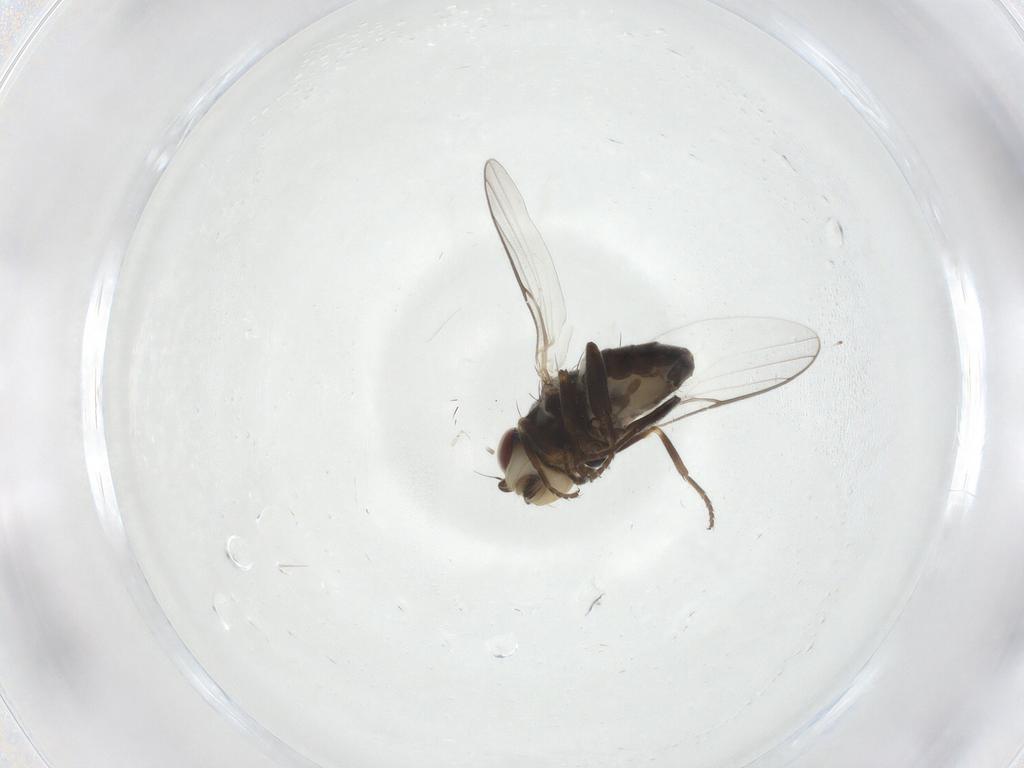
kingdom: Animalia
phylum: Arthropoda
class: Insecta
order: Diptera
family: Chloropidae
